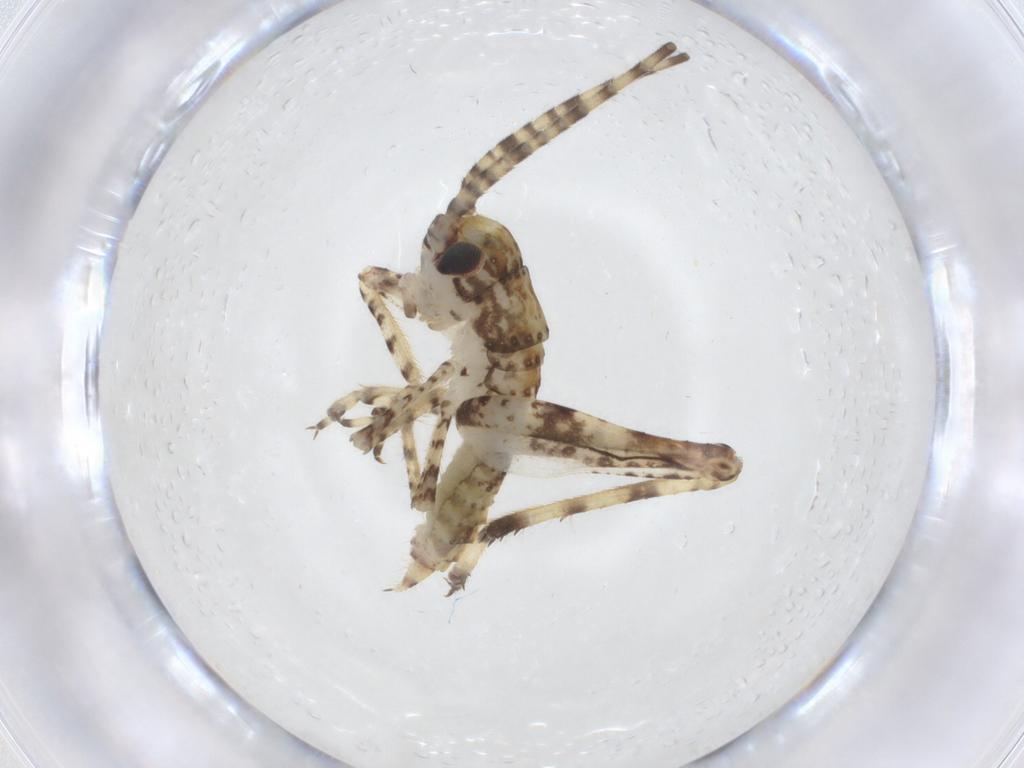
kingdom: Animalia
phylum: Arthropoda
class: Insecta
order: Orthoptera
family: Gryllidae
